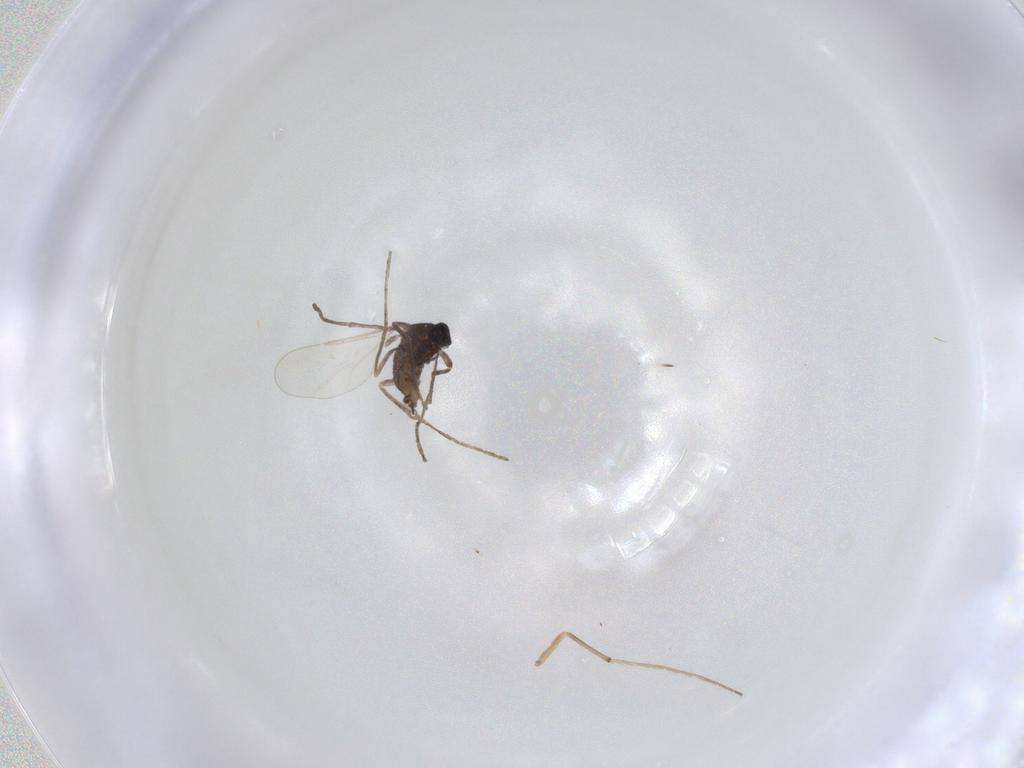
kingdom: Animalia
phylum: Arthropoda
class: Insecta
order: Diptera
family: Cecidomyiidae
